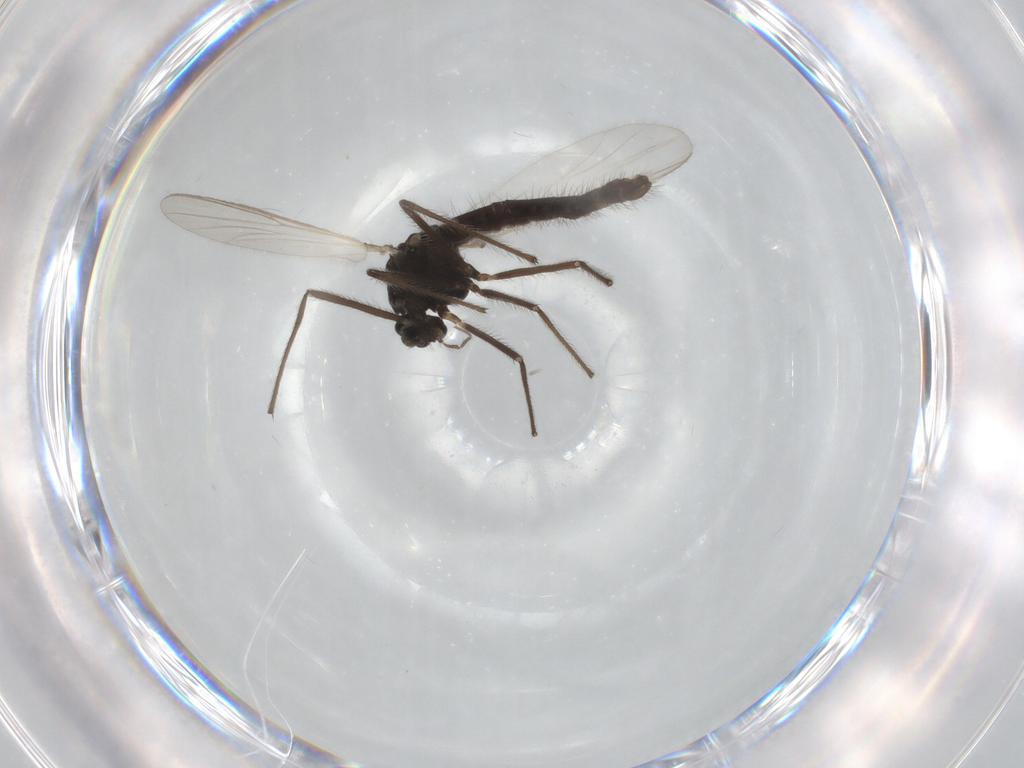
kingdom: Animalia
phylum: Arthropoda
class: Insecta
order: Diptera
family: Chironomidae
